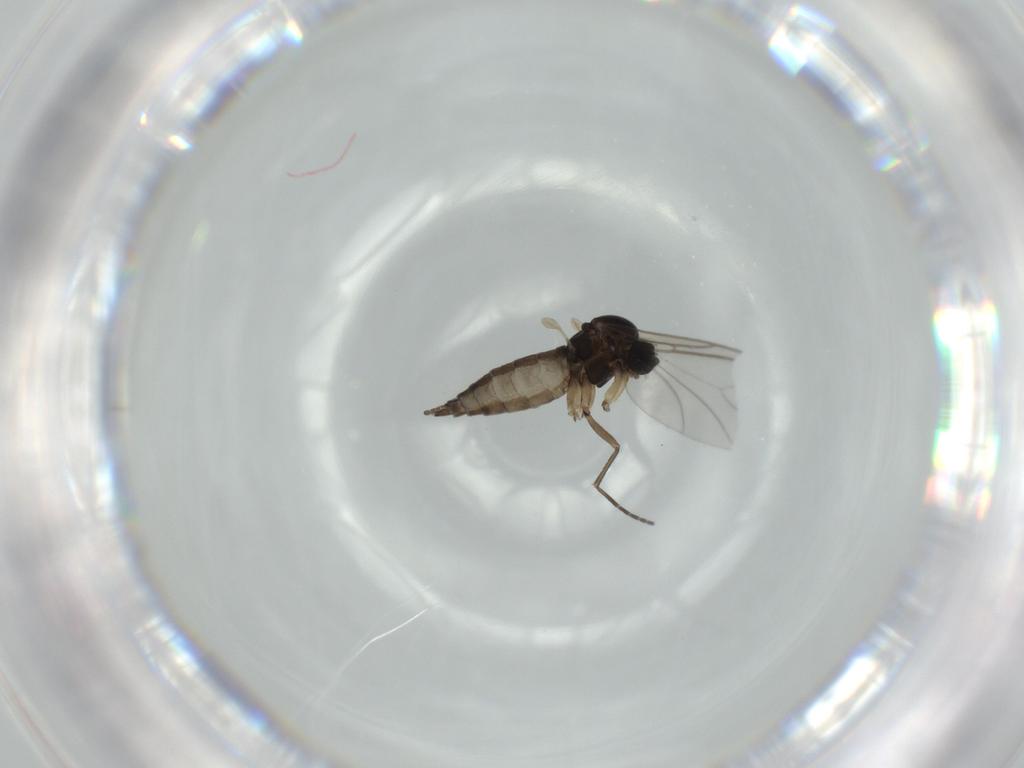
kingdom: Animalia
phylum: Arthropoda
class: Insecta
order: Diptera
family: Sciaridae
